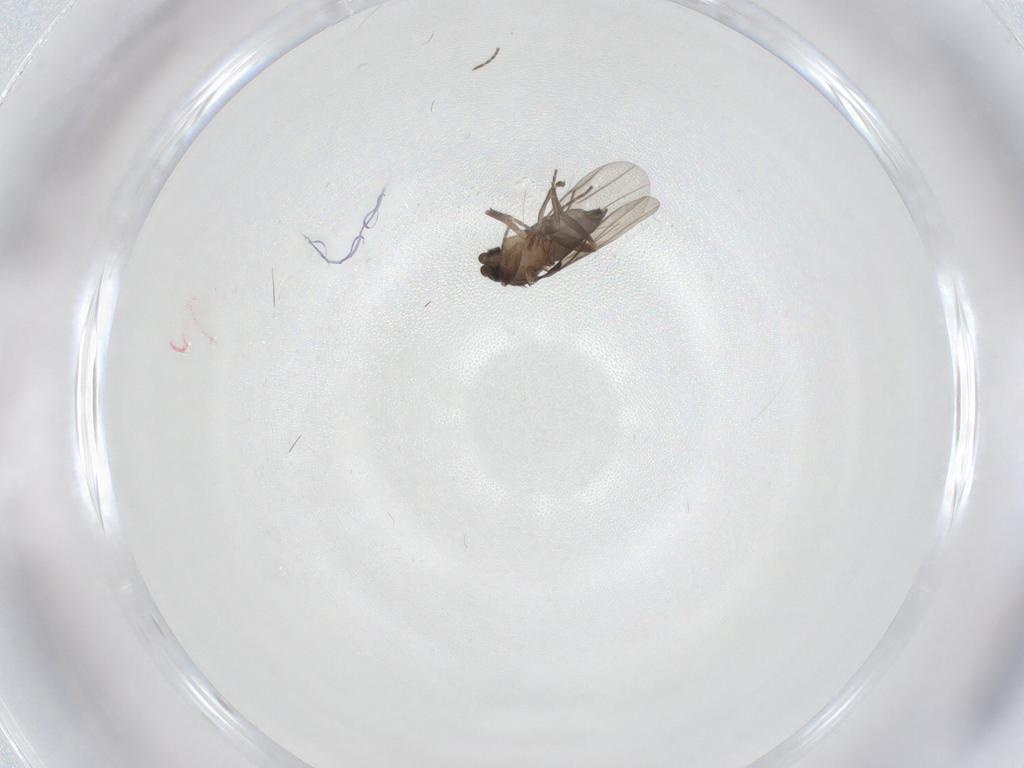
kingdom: Animalia
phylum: Arthropoda
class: Insecta
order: Diptera
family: Phoridae
